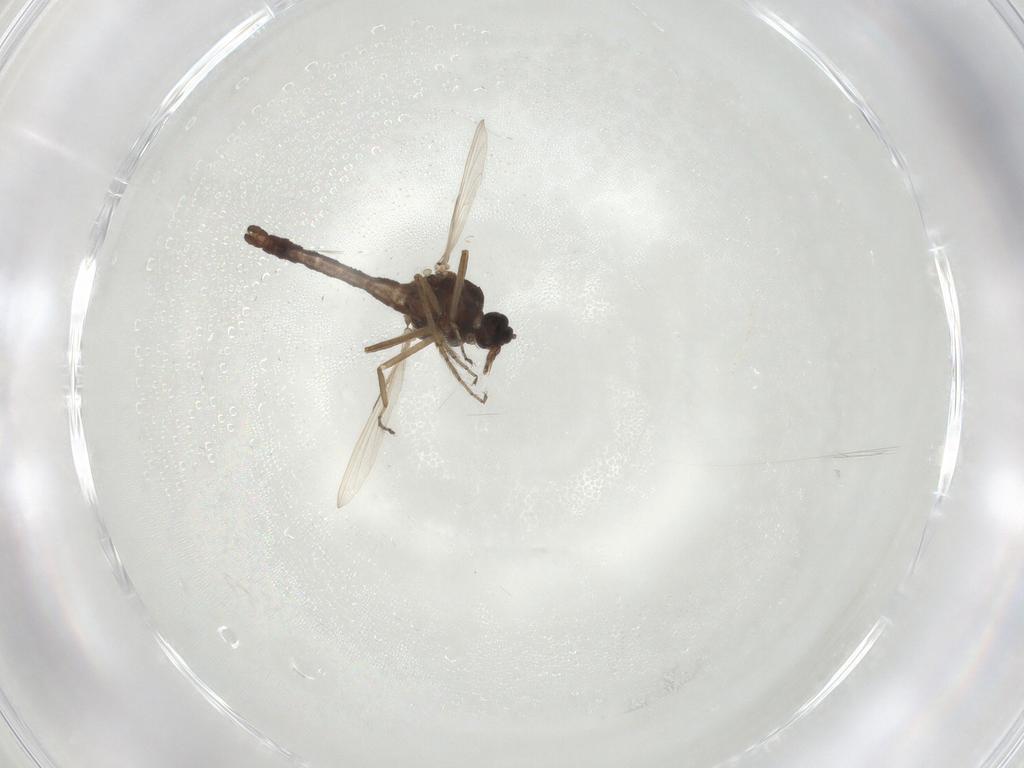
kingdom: Animalia
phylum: Arthropoda
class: Insecta
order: Diptera
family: Ceratopogonidae
